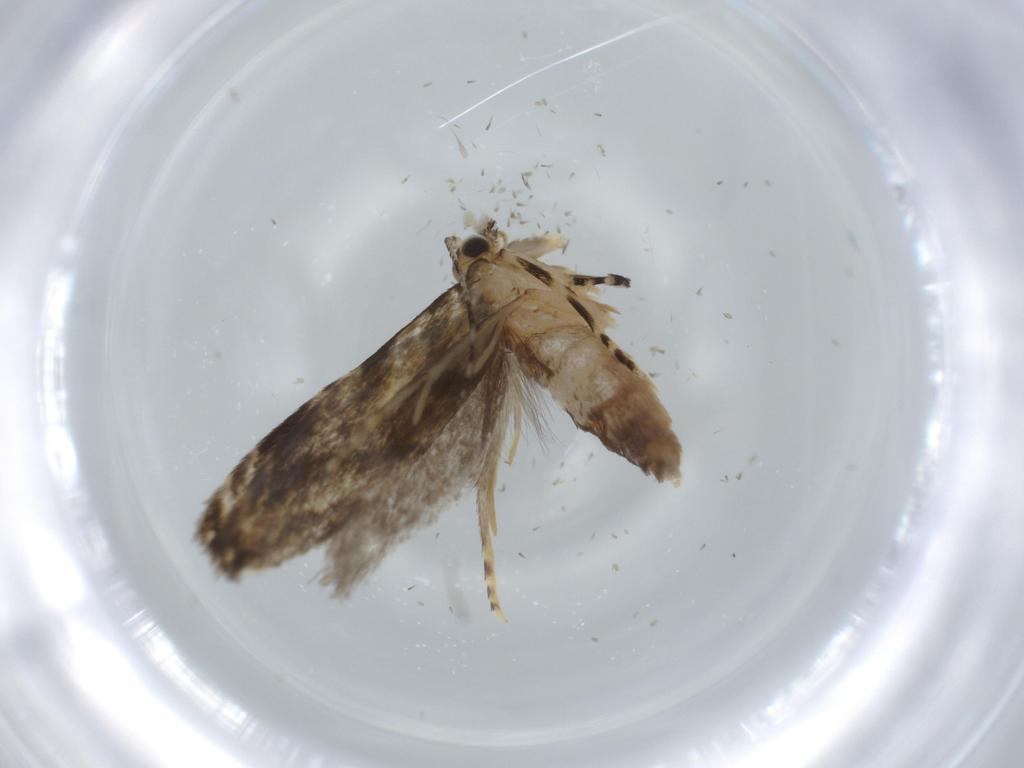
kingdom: Animalia
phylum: Arthropoda
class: Insecta
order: Lepidoptera
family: Tineidae
